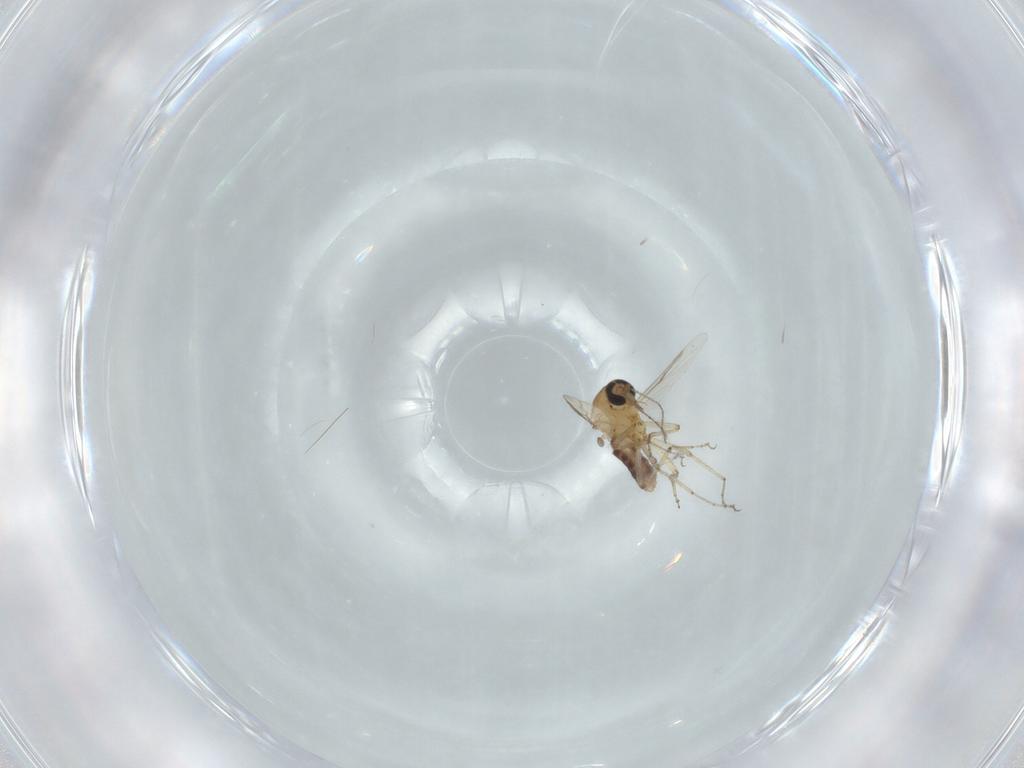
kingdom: Animalia
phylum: Arthropoda
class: Insecta
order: Diptera
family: Ceratopogonidae
